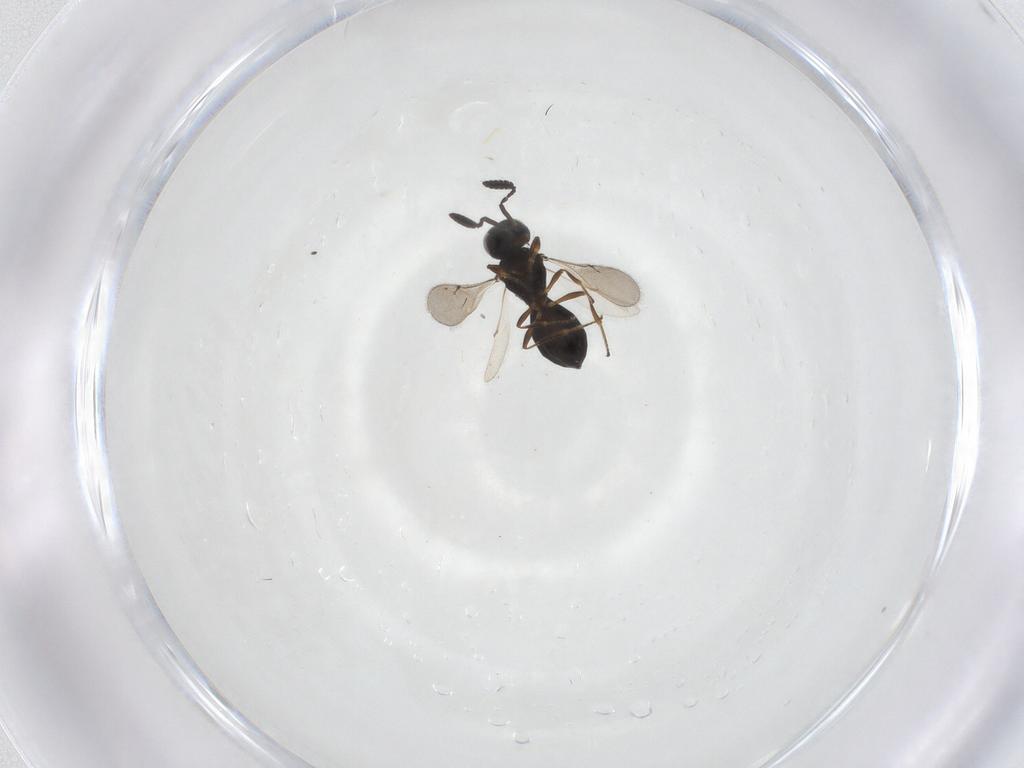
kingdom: Animalia
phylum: Arthropoda
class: Insecta
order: Hymenoptera
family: Scelionidae
